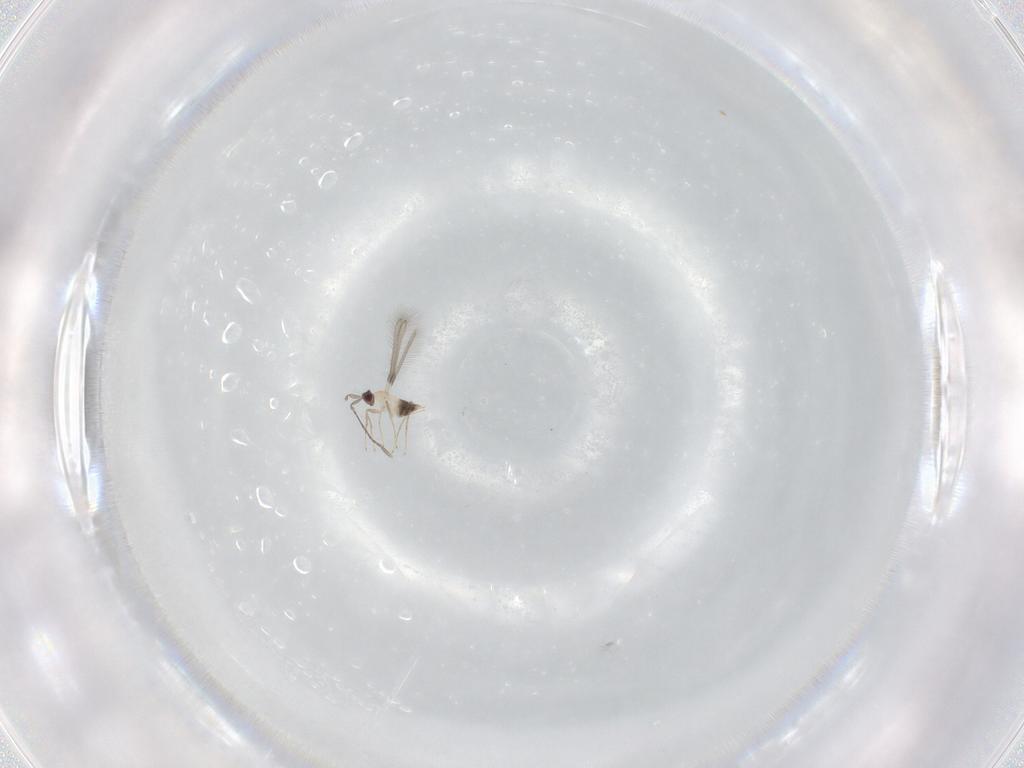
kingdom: Animalia
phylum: Arthropoda
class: Insecta
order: Hymenoptera
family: Mymaridae
